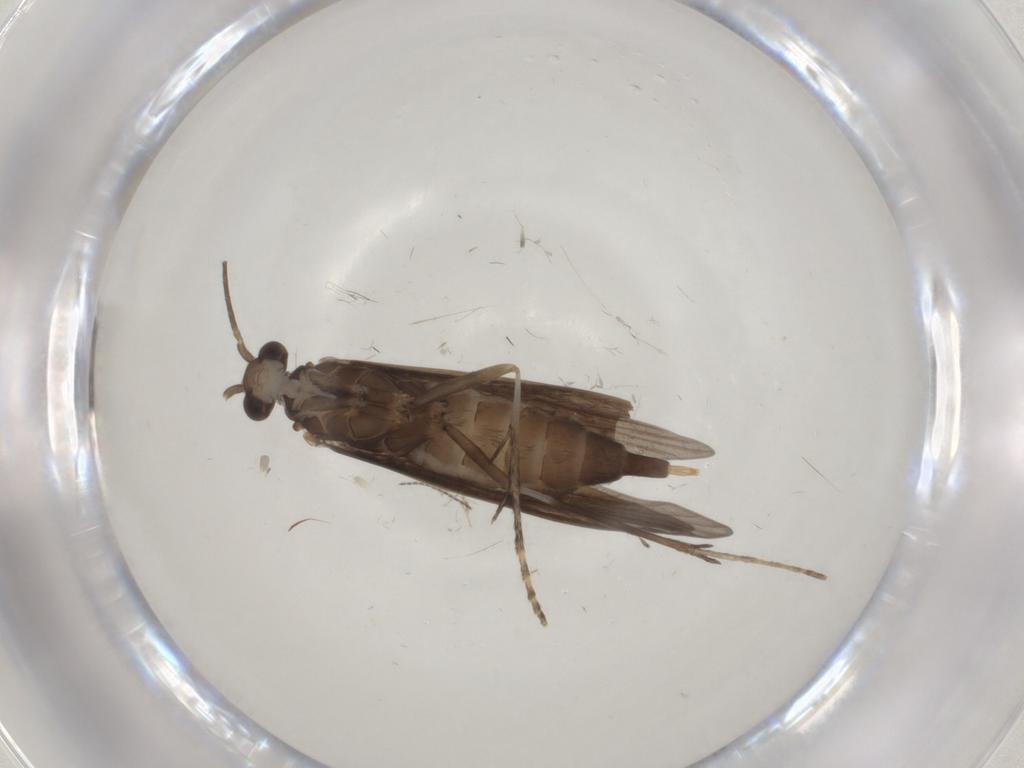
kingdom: Animalia
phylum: Arthropoda
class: Insecta
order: Trichoptera
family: Xiphocentronidae
